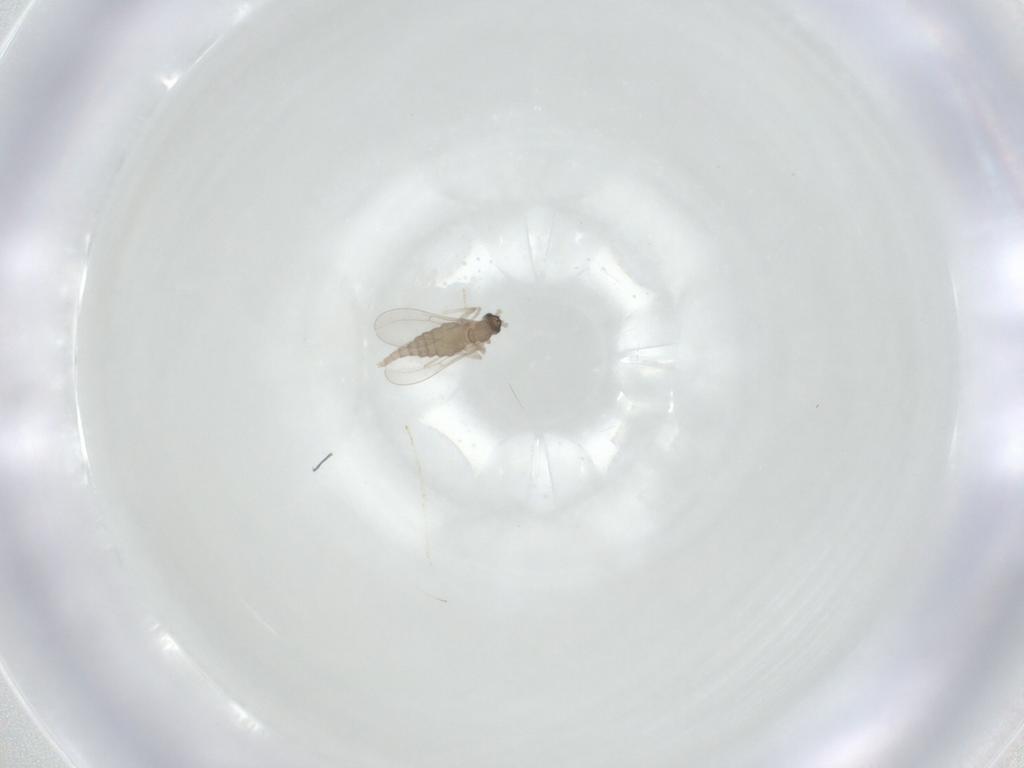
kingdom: Animalia
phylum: Arthropoda
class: Insecta
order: Diptera
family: Cecidomyiidae
